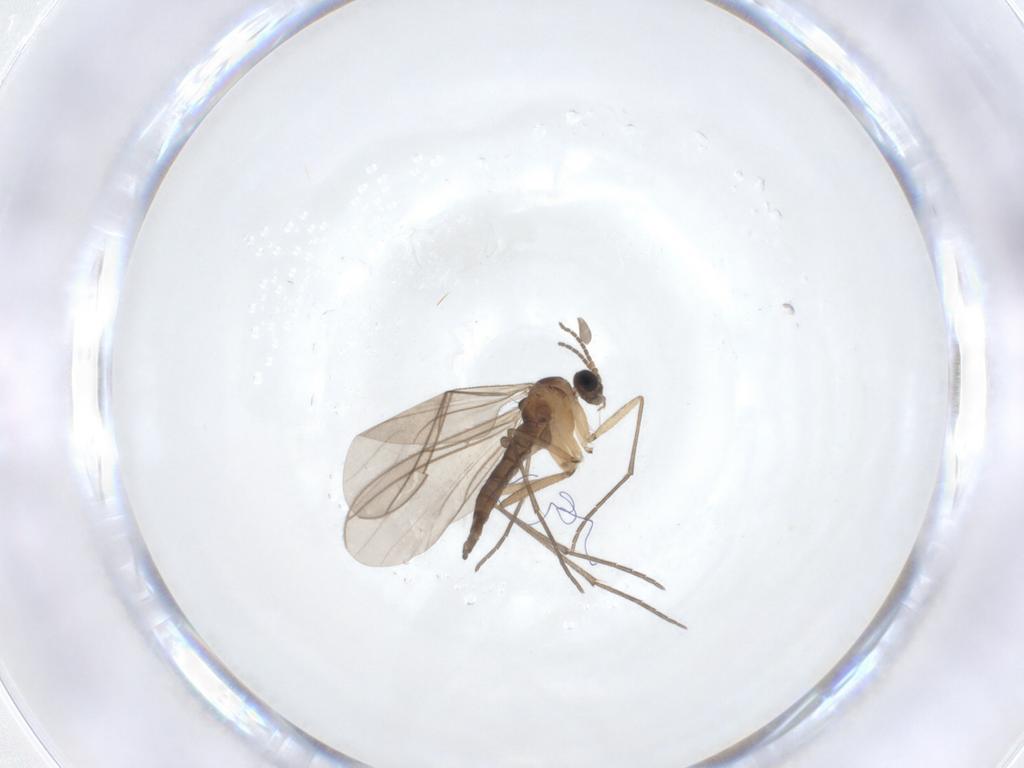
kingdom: Animalia
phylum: Arthropoda
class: Insecta
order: Diptera
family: Sciaridae
